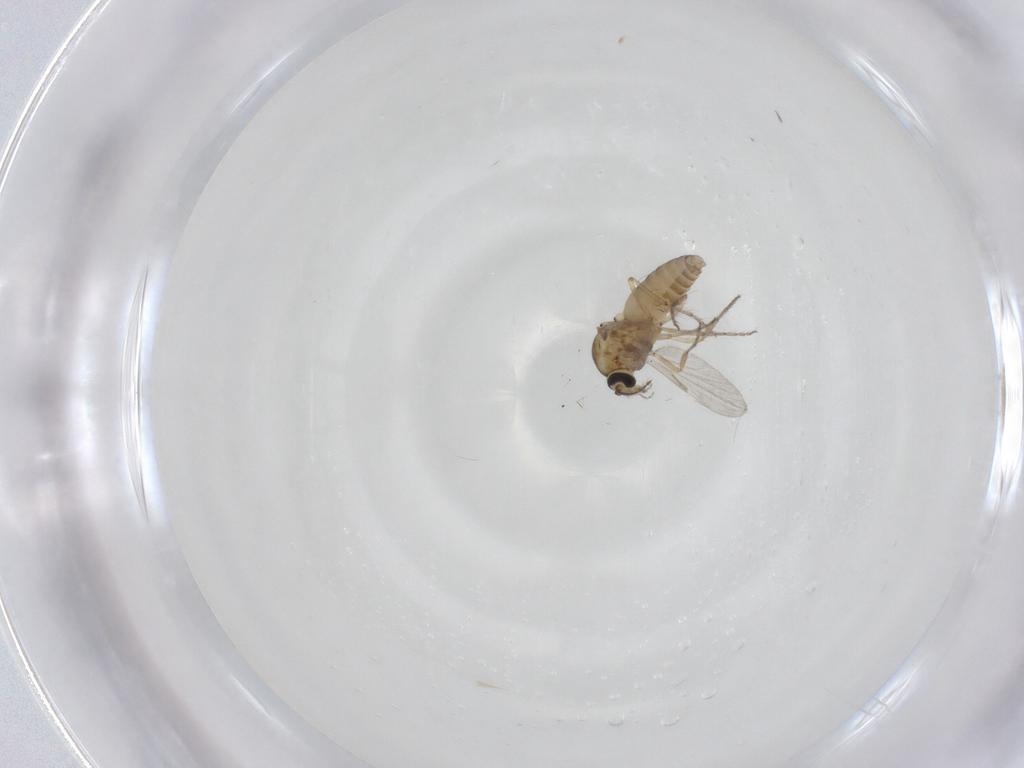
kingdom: Animalia
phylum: Arthropoda
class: Insecta
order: Diptera
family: Ceratopogonidae
